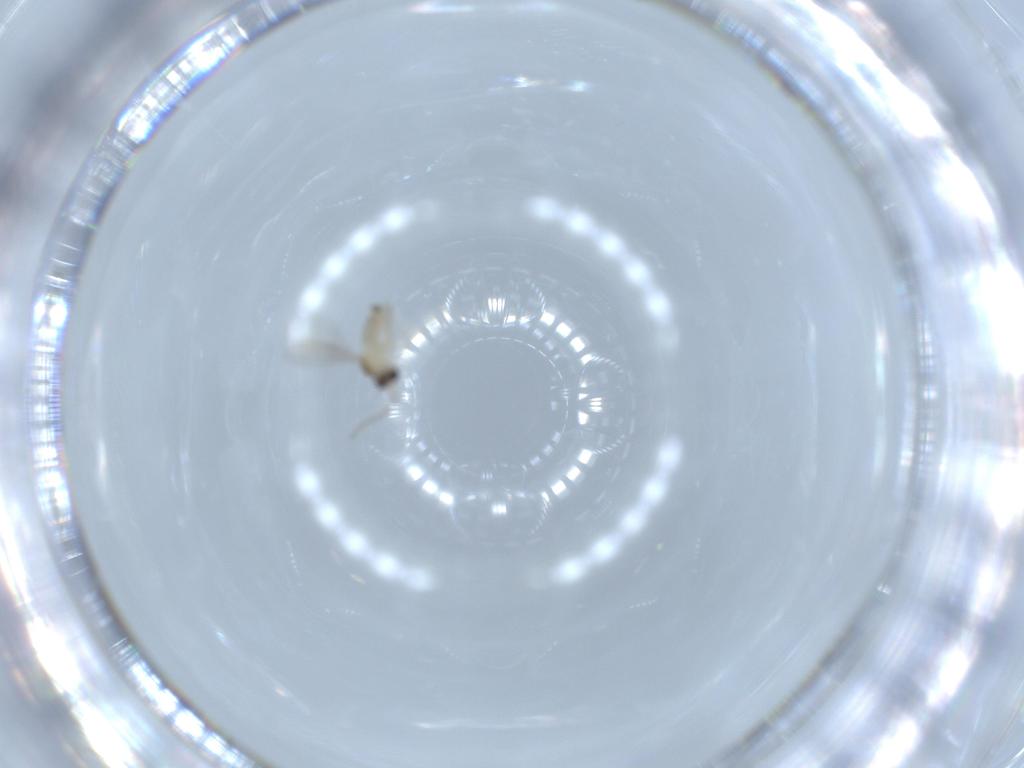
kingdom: Animalia
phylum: Arthropoda
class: Insecta
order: Diptera
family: Cecidomyiidae
